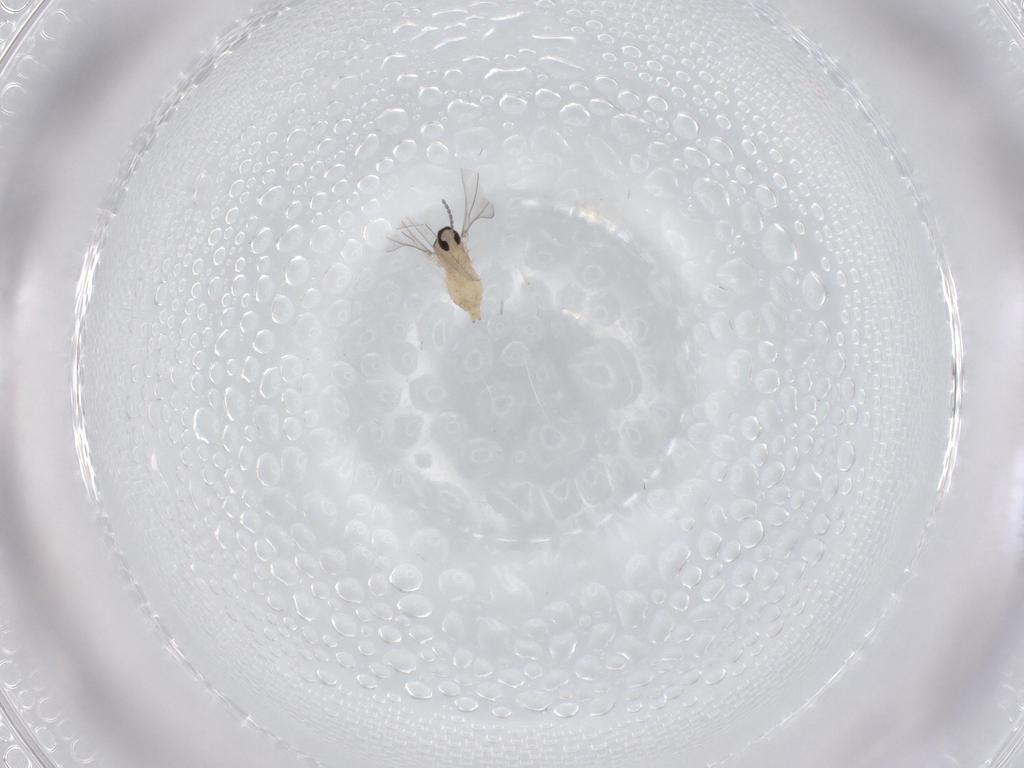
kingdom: Animalia
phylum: Arthropoda
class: Insecta
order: Diptera
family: Cecidomyiidae
